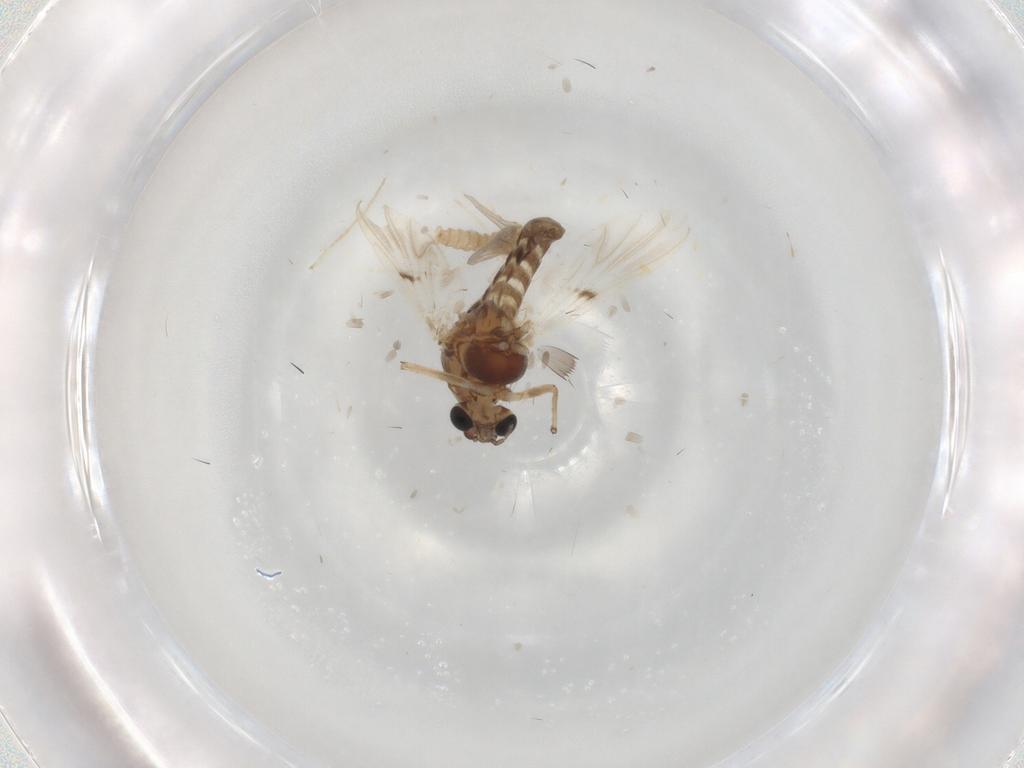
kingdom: Animalia
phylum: Arthropoda
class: Insecta
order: Diptera
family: Cecidomyiidae
